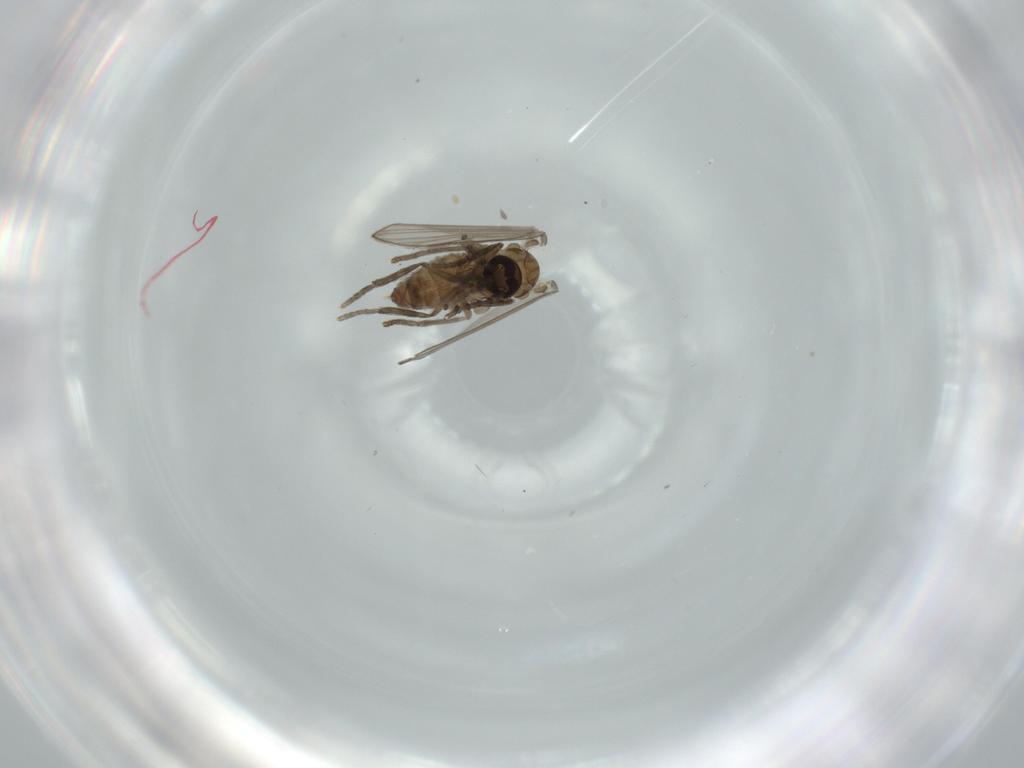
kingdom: Animalia
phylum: Arthropoda
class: Insecta
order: Diptera
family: Psychodidae
